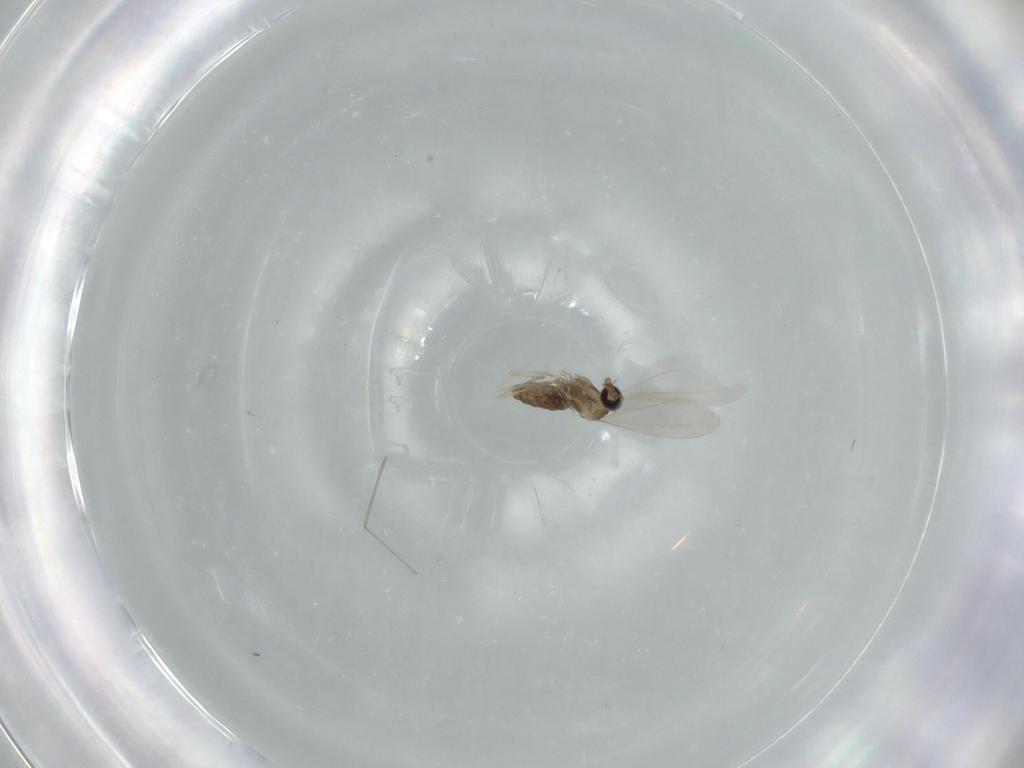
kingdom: Animalia
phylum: Arthropoda
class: Insecta
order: Diptera
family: Cecidomyiidae
